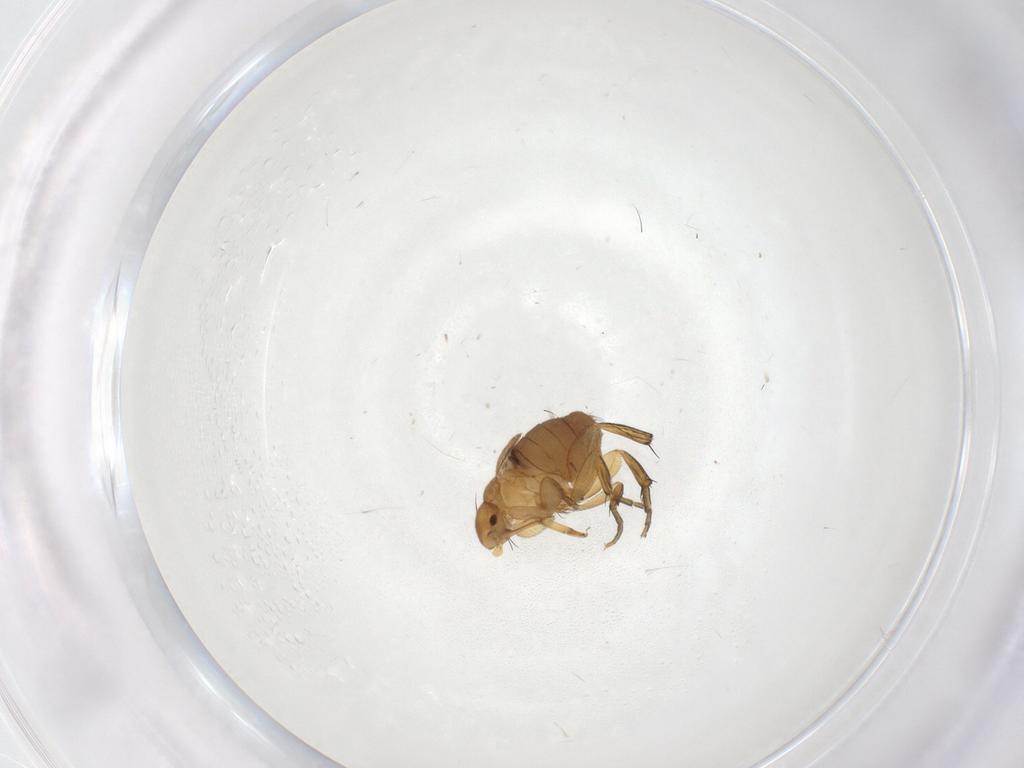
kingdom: Animalia
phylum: Arthropoda
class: Insecta
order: Diptera
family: Phoridae
